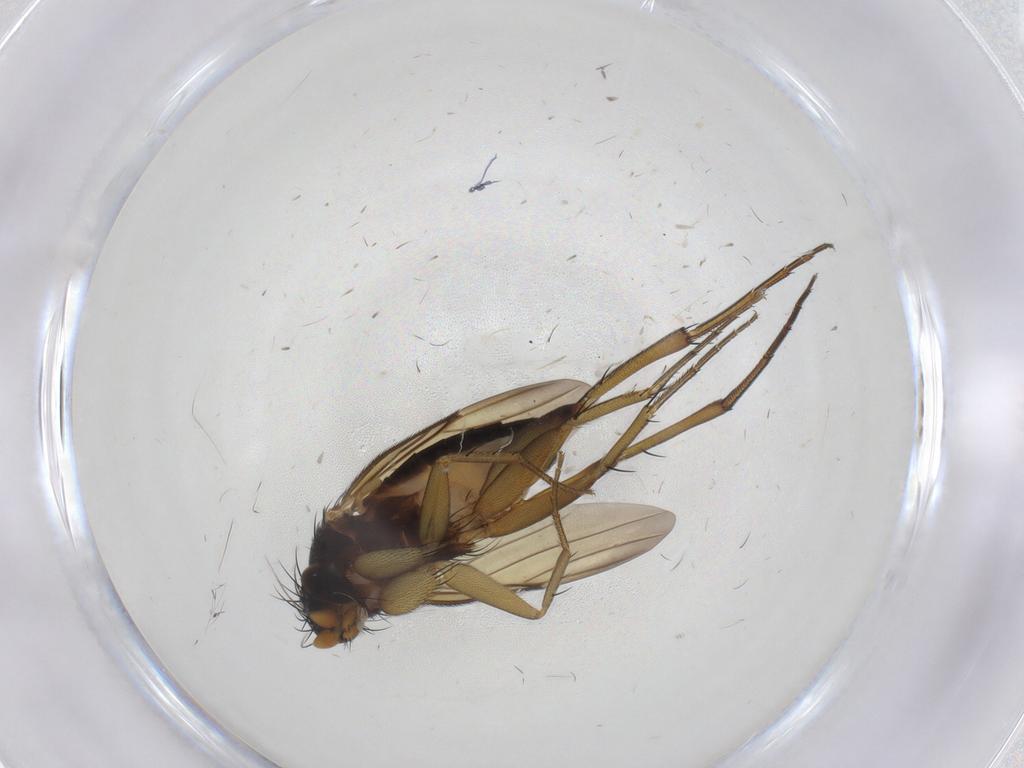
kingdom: Animalia
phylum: Arthropoda
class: Insecta
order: Diptera
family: Phoridae
